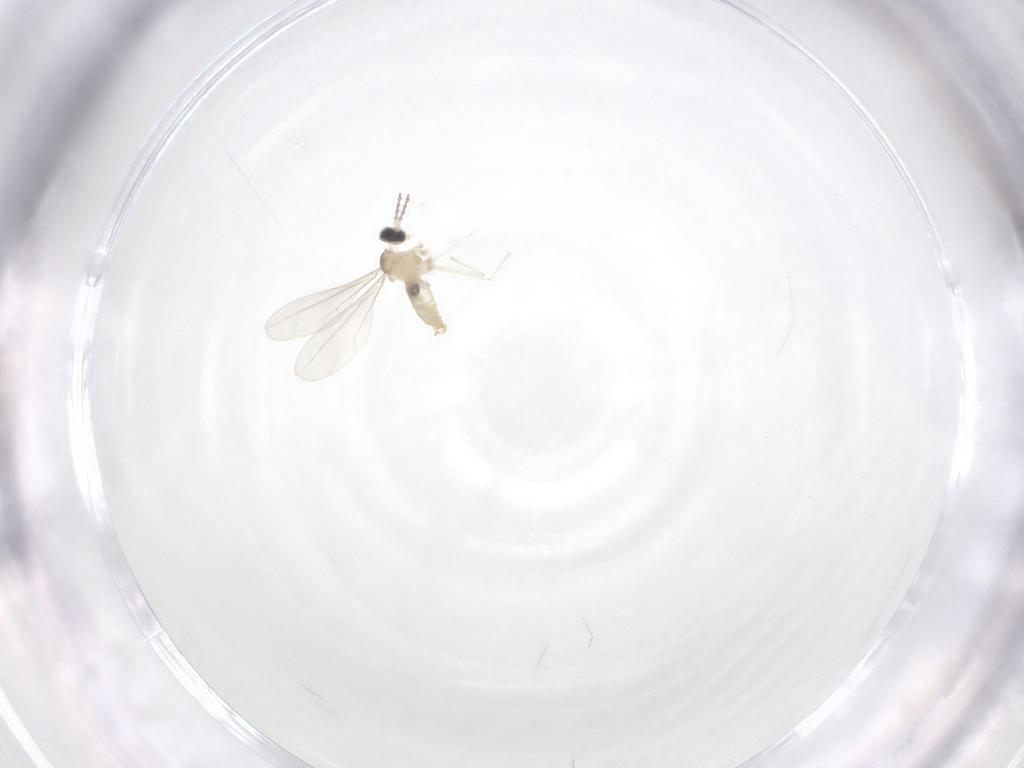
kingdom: Animalia
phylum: Arthropoda
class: Insecta
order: Diptera
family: Cecidomyiidae
